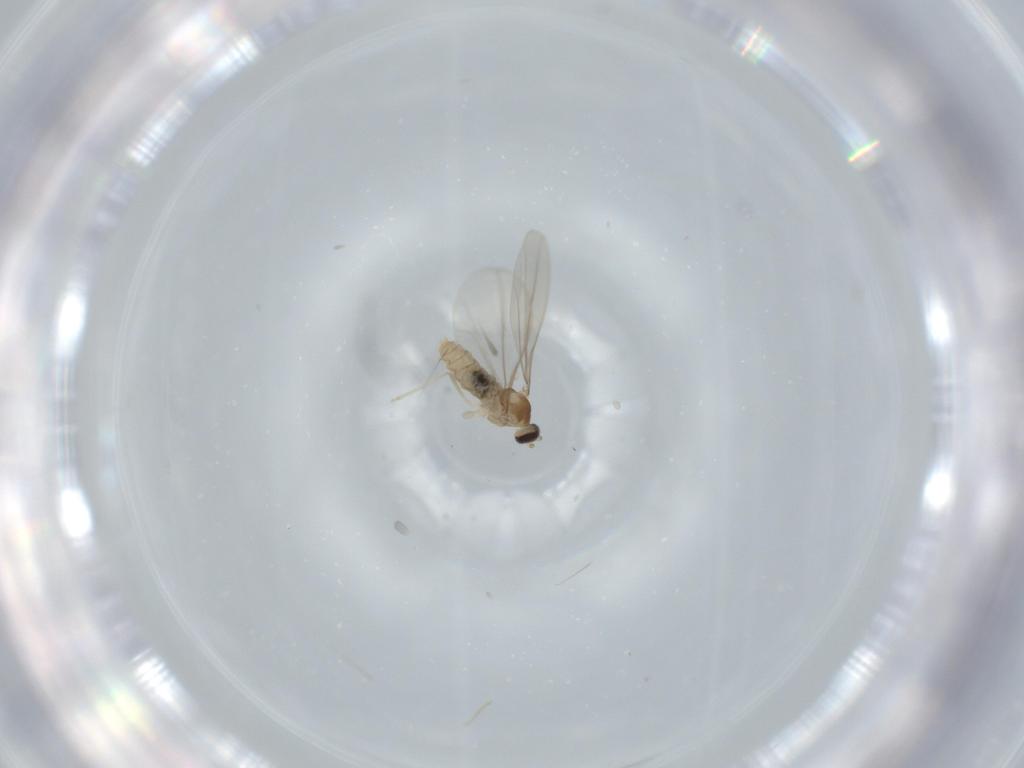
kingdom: Animalia
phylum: Arthropoda
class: Insecta
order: Diptera
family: Cecidomyiidae
